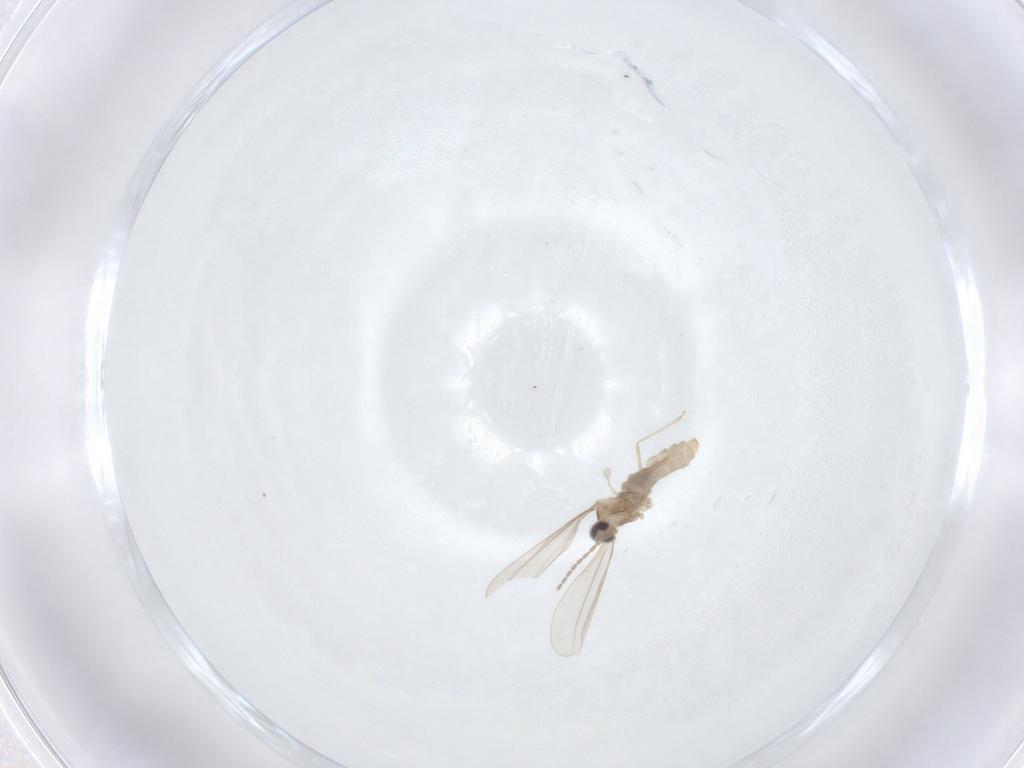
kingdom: Animalia
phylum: Arthropoda
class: Insecta
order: Diptera
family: Cecidomyiidae
